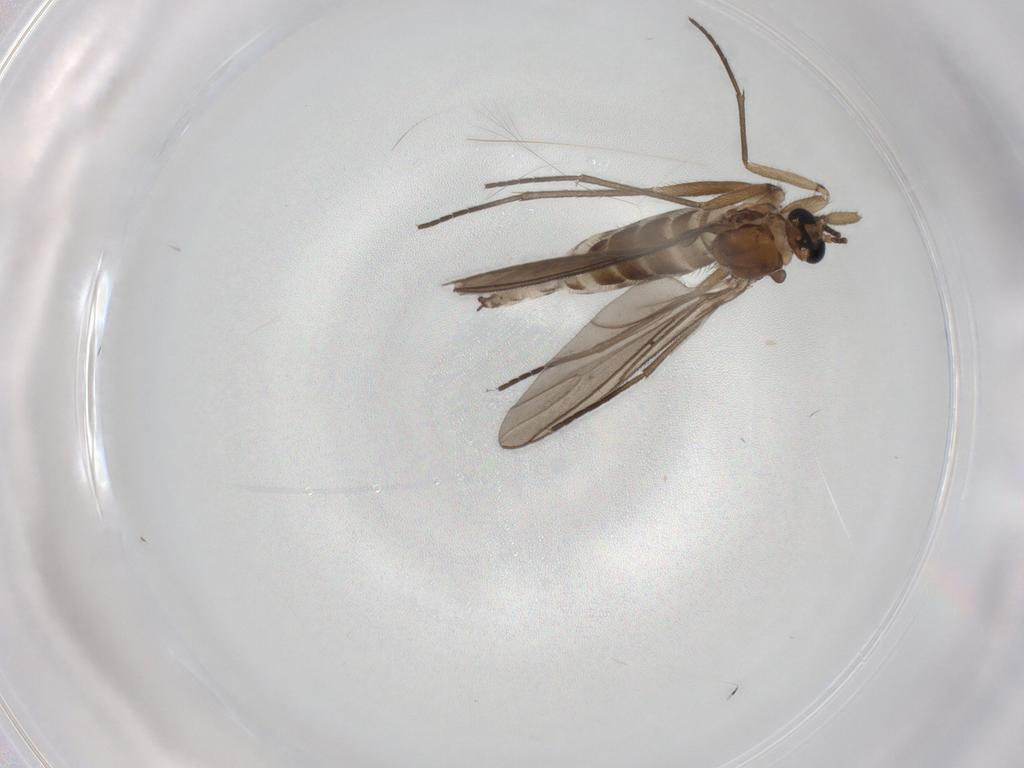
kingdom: Animalia
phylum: Arthropoda
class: Insecta
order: Diptera
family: Sciaridae
